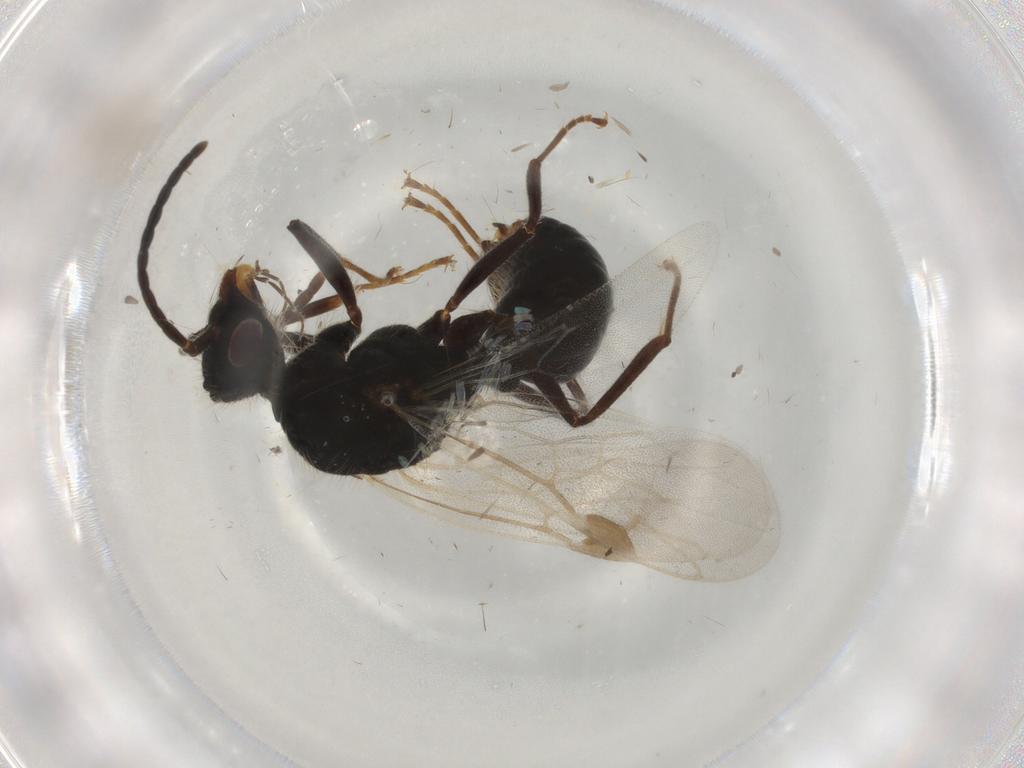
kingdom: Animalia
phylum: Arthropoda
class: Insecta
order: Hymenoptera
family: Formicidae
